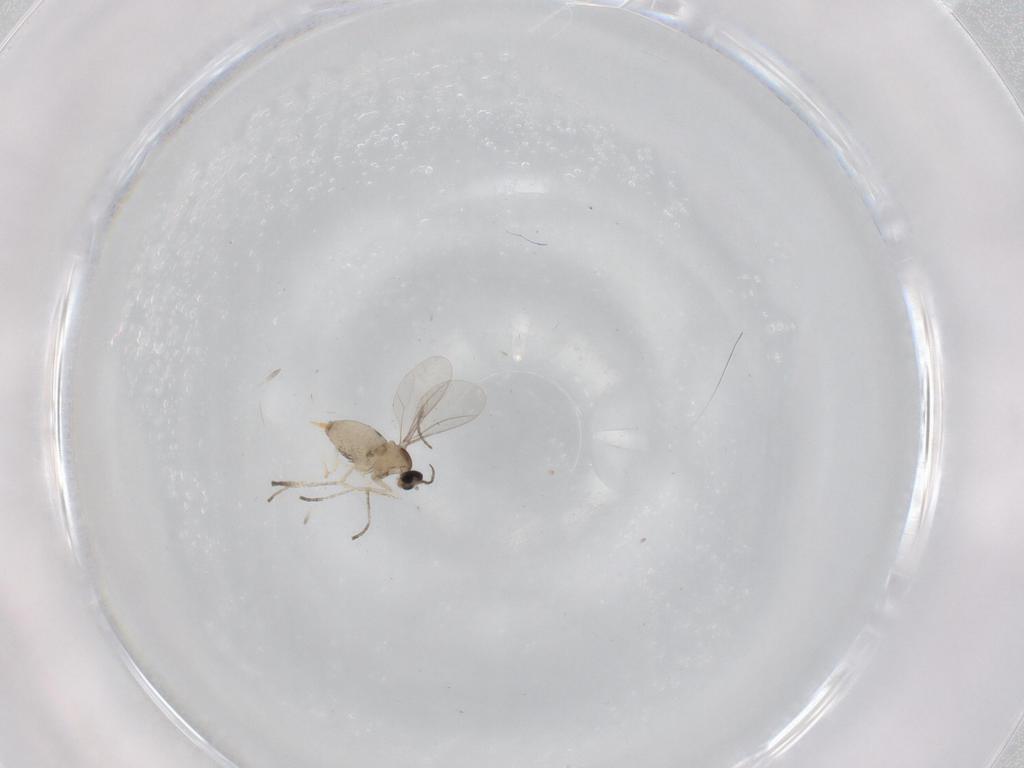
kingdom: Animalia
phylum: Arthropoda
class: Insecta
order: Diptera
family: Cecidomyiidae
